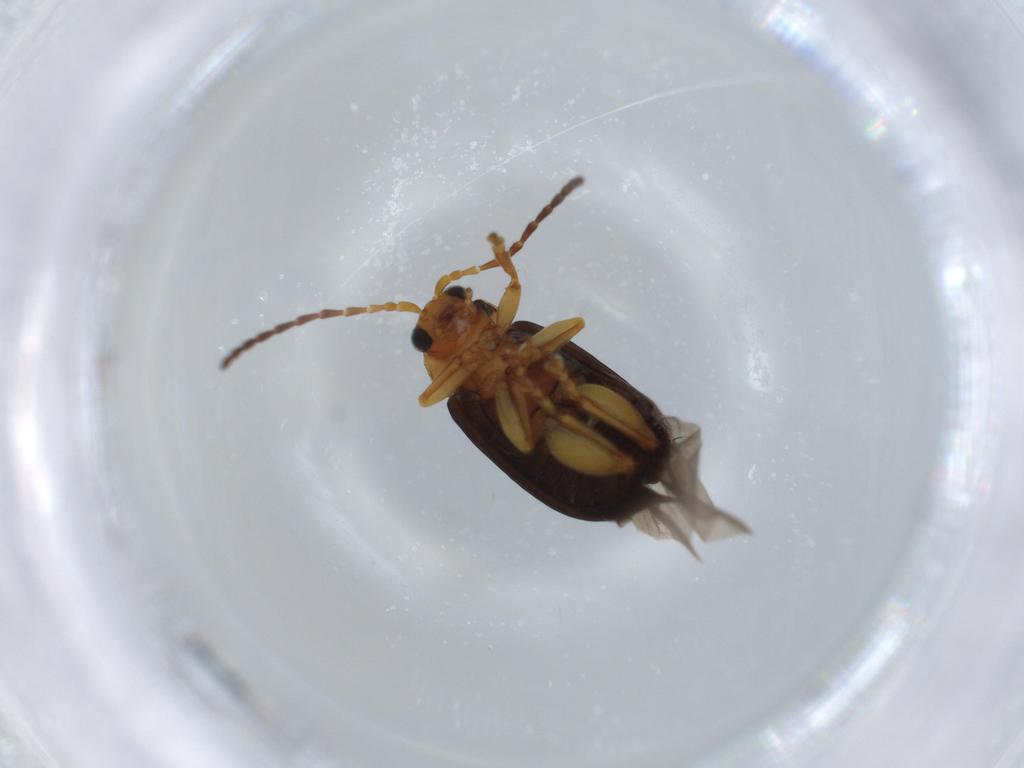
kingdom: Animalia
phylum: Arthropoda
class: Insecta
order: Coleoptera
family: Chrysomelidae
